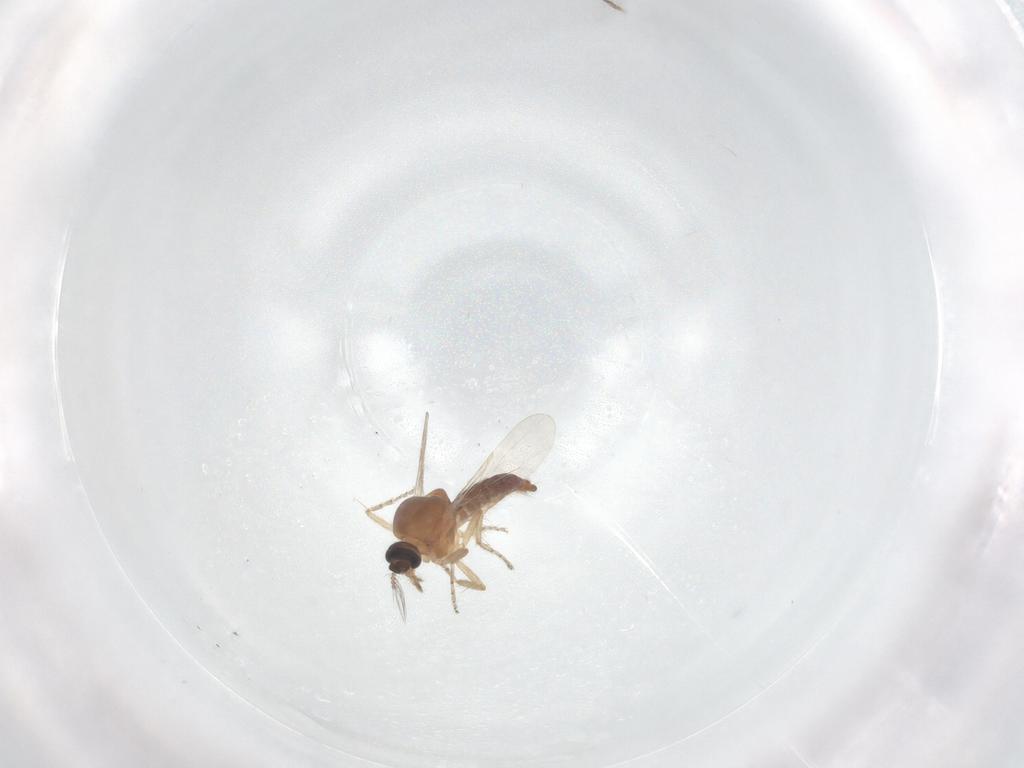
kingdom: Animalia
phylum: Arthropoda
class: Insecta
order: Diptera
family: Ceratopogonidae
